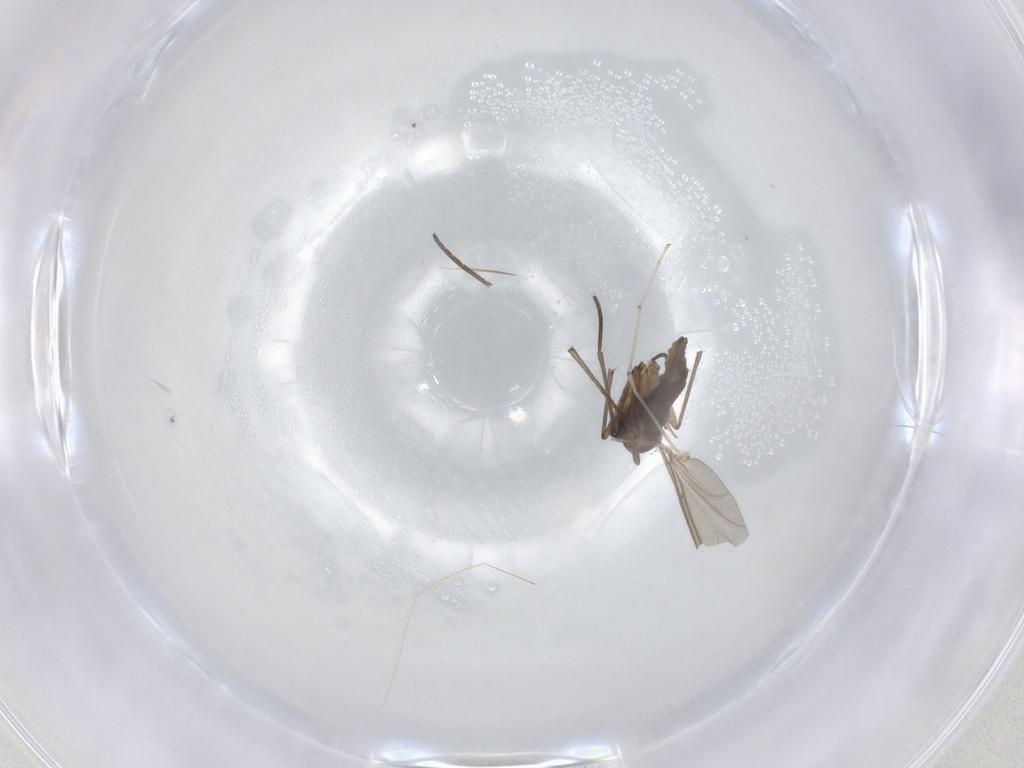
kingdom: Animalia
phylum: Arthropoda
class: Insecta
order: Diptera
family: Sciaridae
